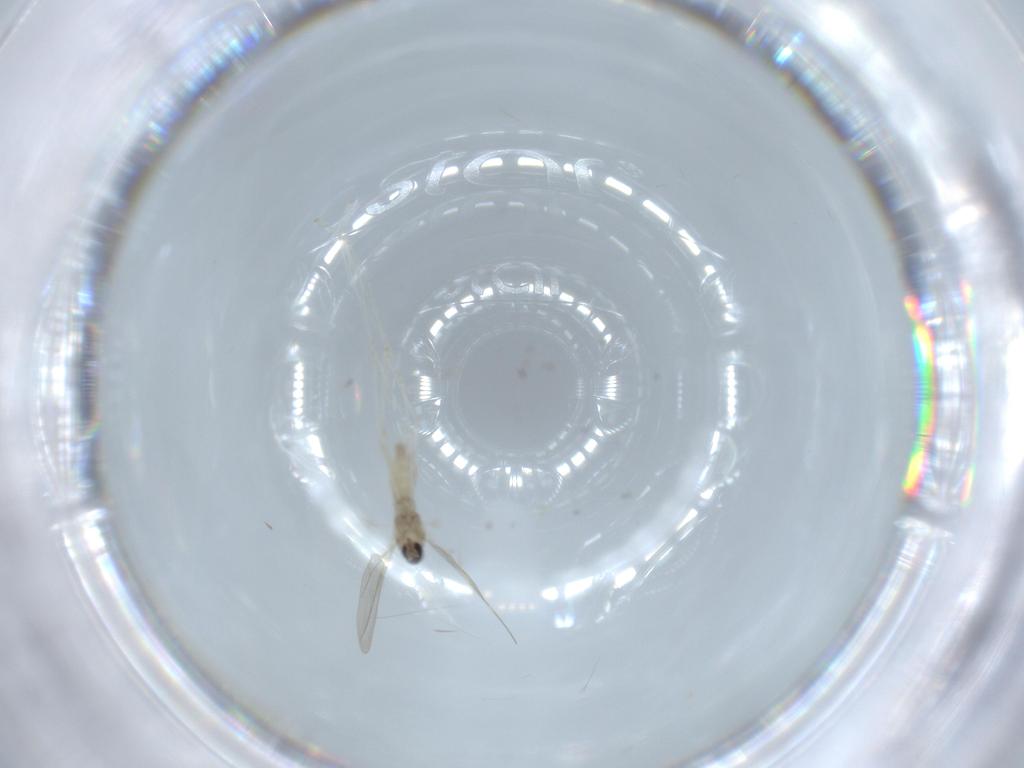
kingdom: Animalia
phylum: Arthropoda
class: Insecta
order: Diptera
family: Cecidomyiidae
